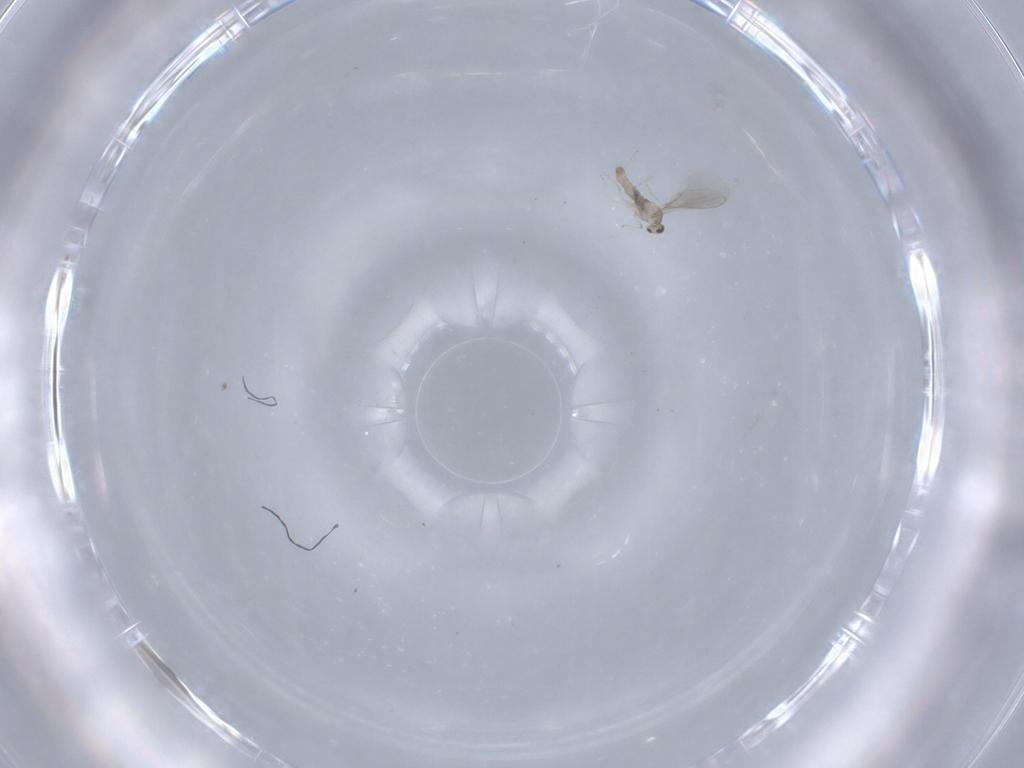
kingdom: Animalia
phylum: Arthropoda
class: Insecta
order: Diptera
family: Cecidomyiidae
